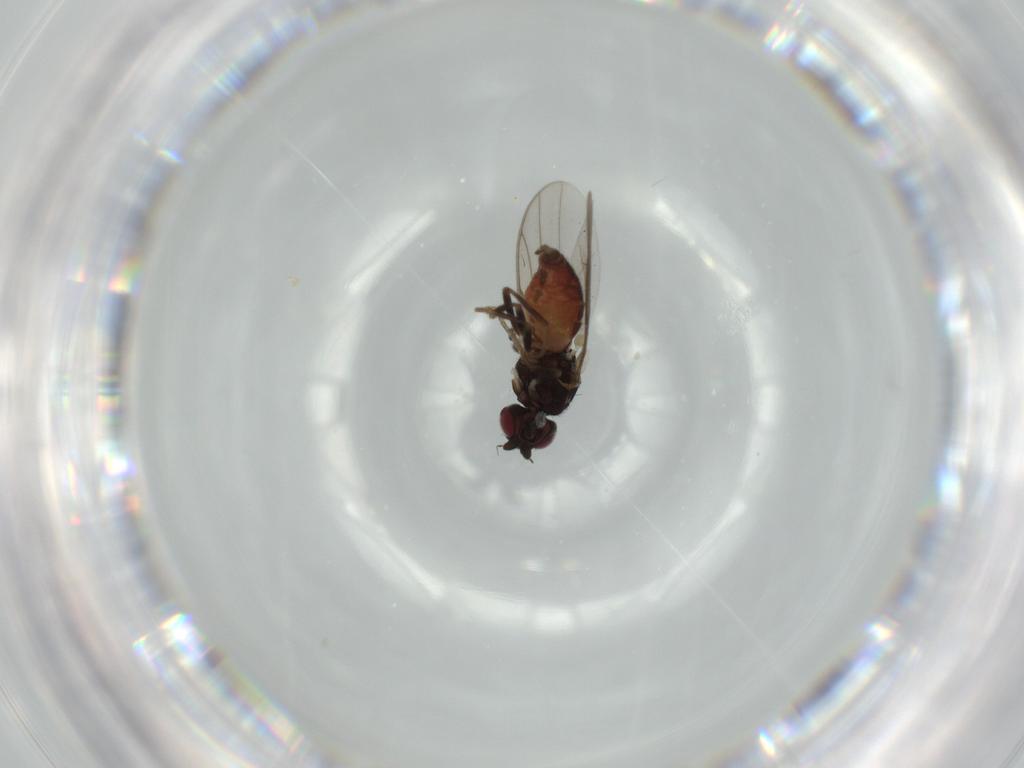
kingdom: Animalia
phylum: Arthropoda
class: Insecta
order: Diptera
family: Chloropidae
